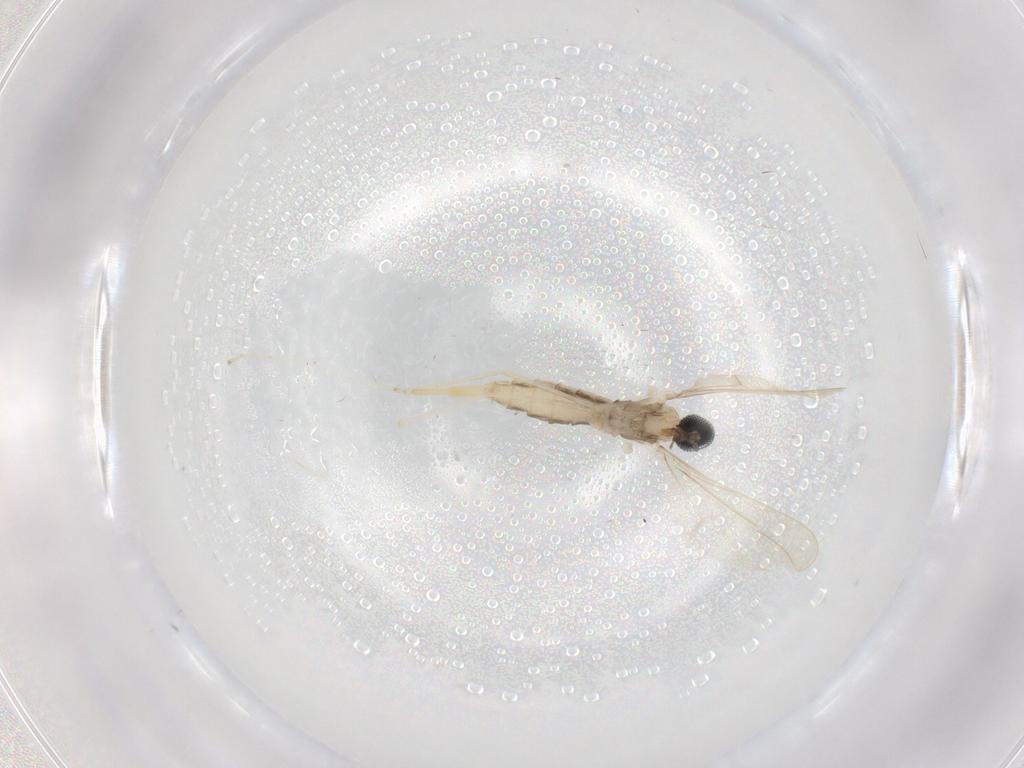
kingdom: Animalia
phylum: Arthropoda
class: Insecta
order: Diptera
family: Cecidomyiidae
